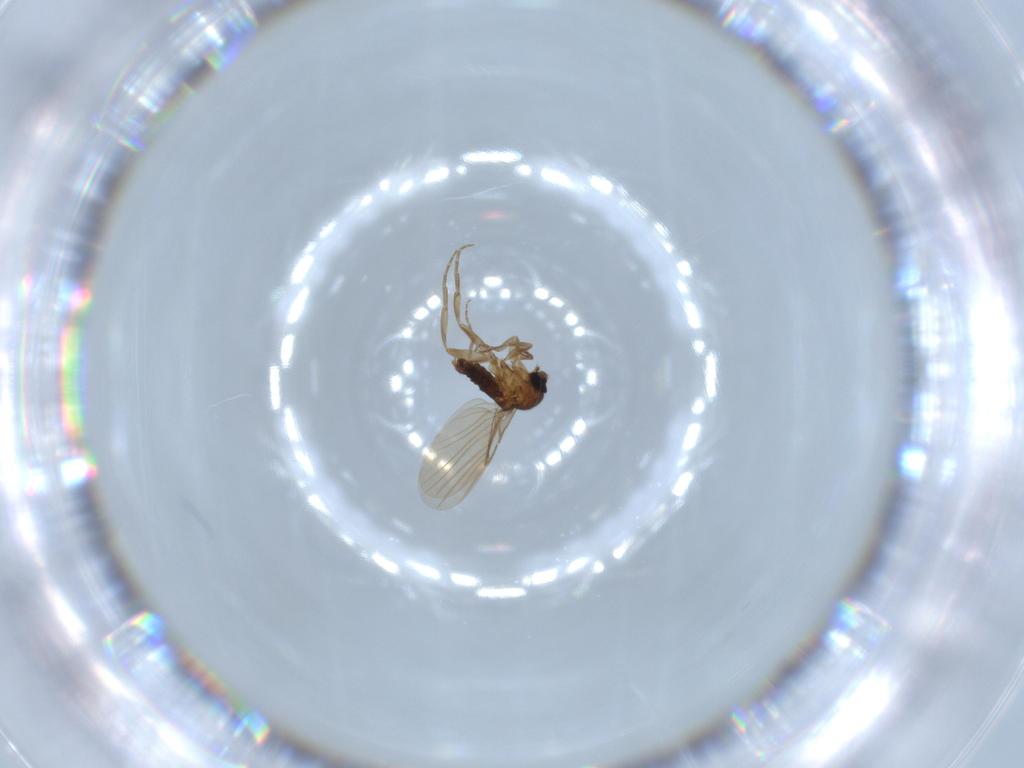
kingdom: Animalia
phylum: Arthropoda
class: Insecta
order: Diptera
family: Phoridae
